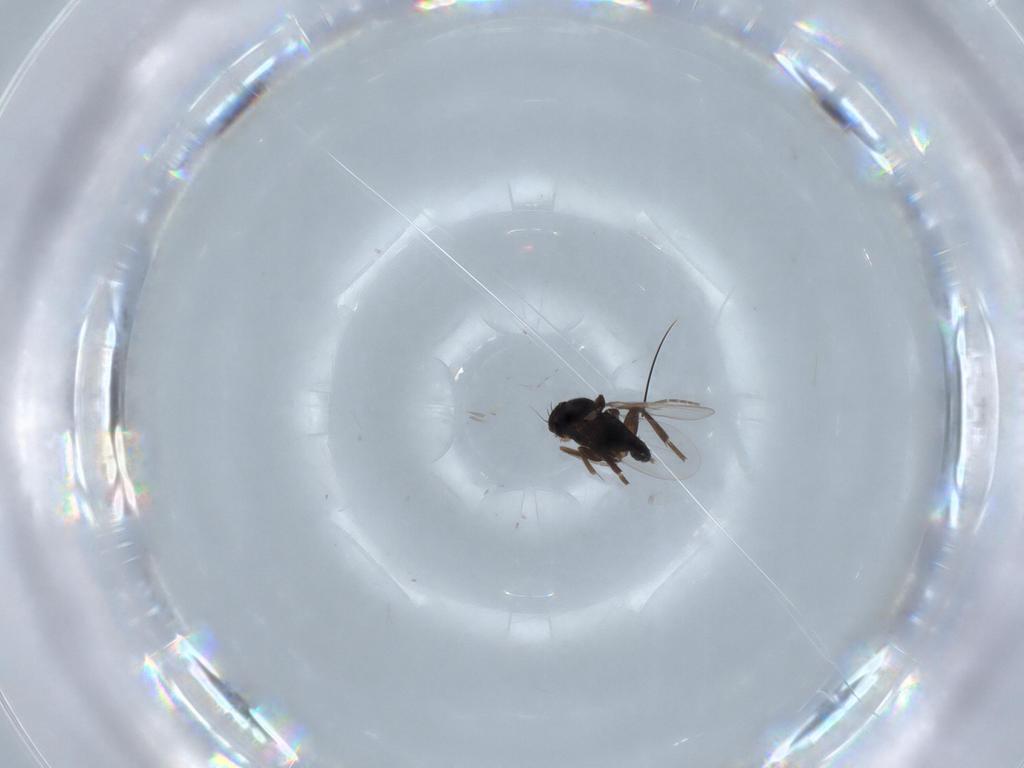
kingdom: Animalia
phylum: Arthropoda
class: Insecta
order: Diptera
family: Phoridae
